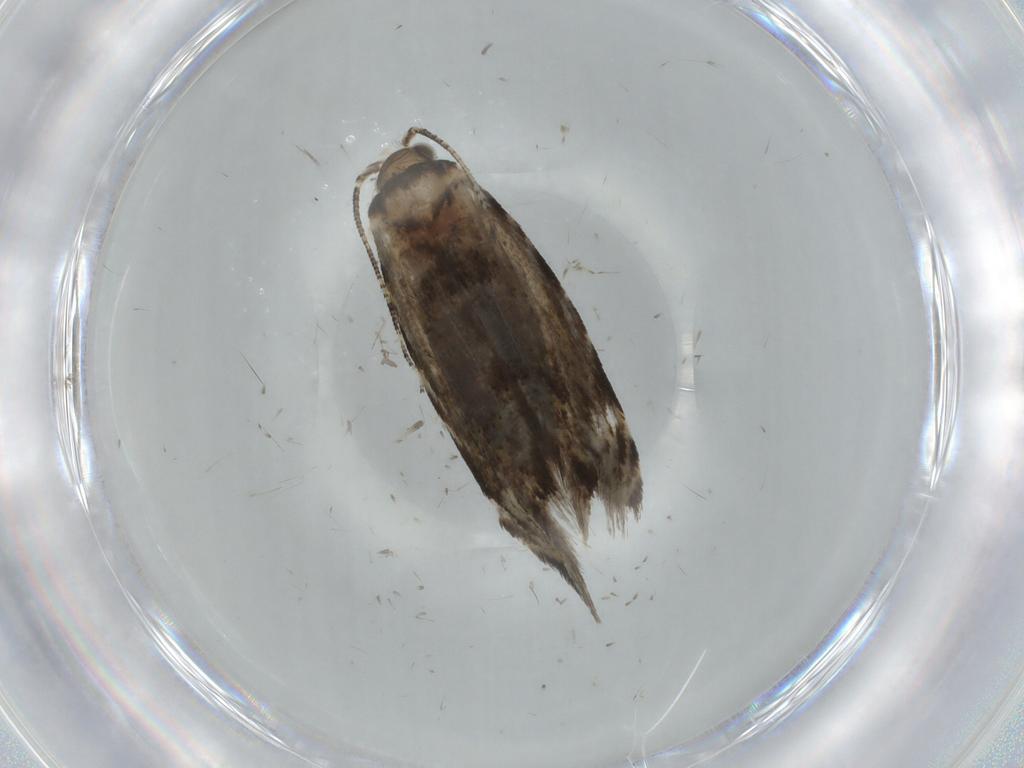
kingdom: Animalia
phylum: Arthropoda
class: Insecta
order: Lepidoptera
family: Tineidae
